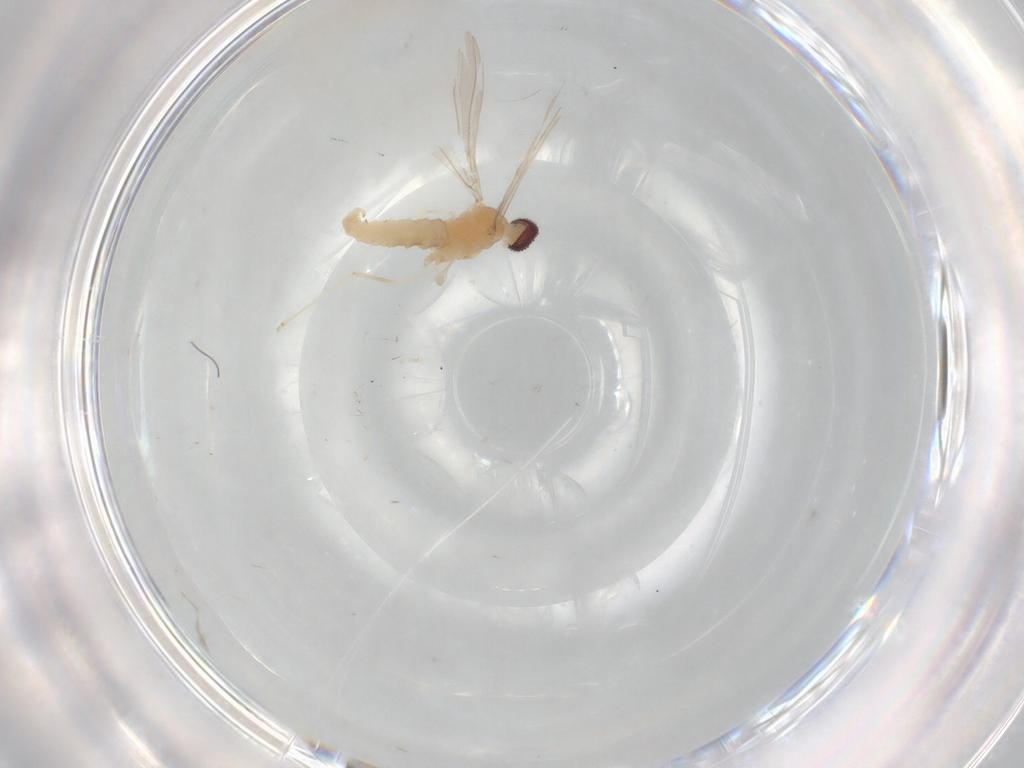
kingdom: Animalia
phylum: Arthropoda
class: Insecta
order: Diptera
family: Cecidomyiidae
